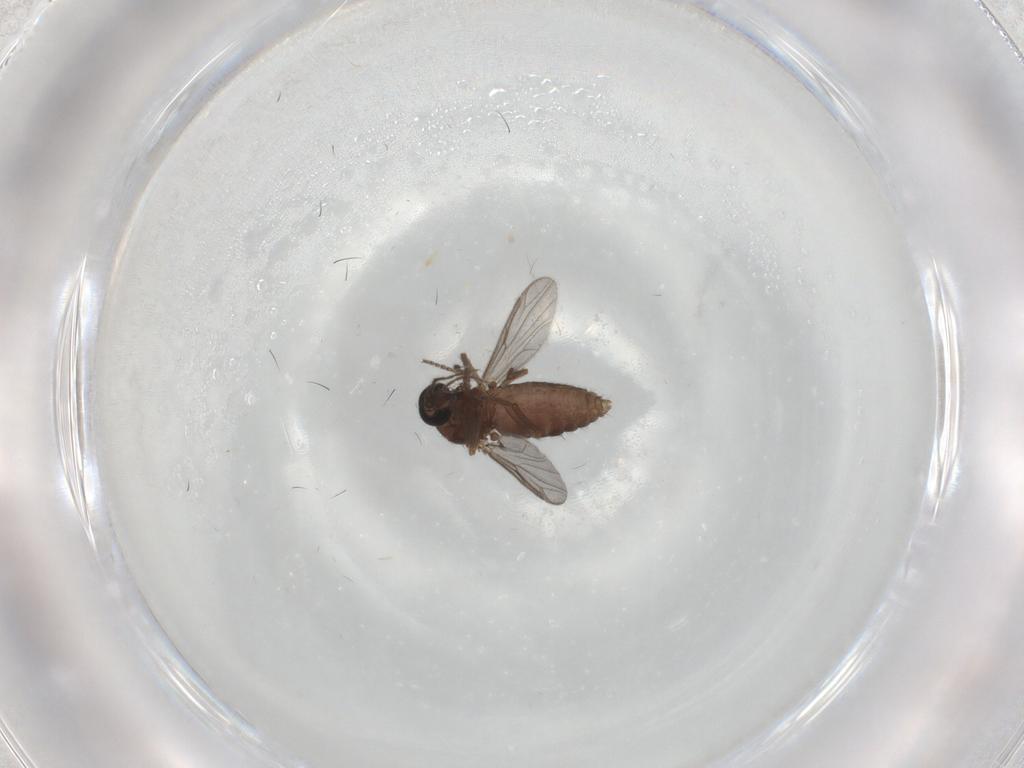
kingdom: Animalia
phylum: Arthropoda
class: Insecta
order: Diptera
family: Ceratopogonidae
